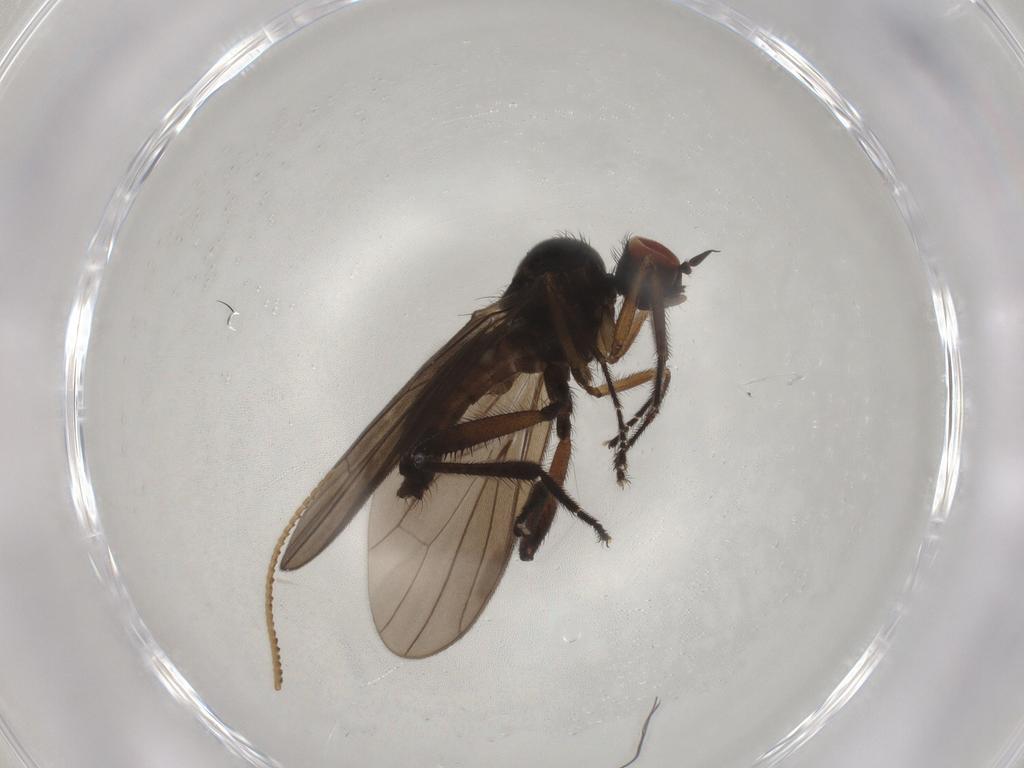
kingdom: Animalia
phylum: Arthropoda
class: Insecta
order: Diptera
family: Hybotidae
